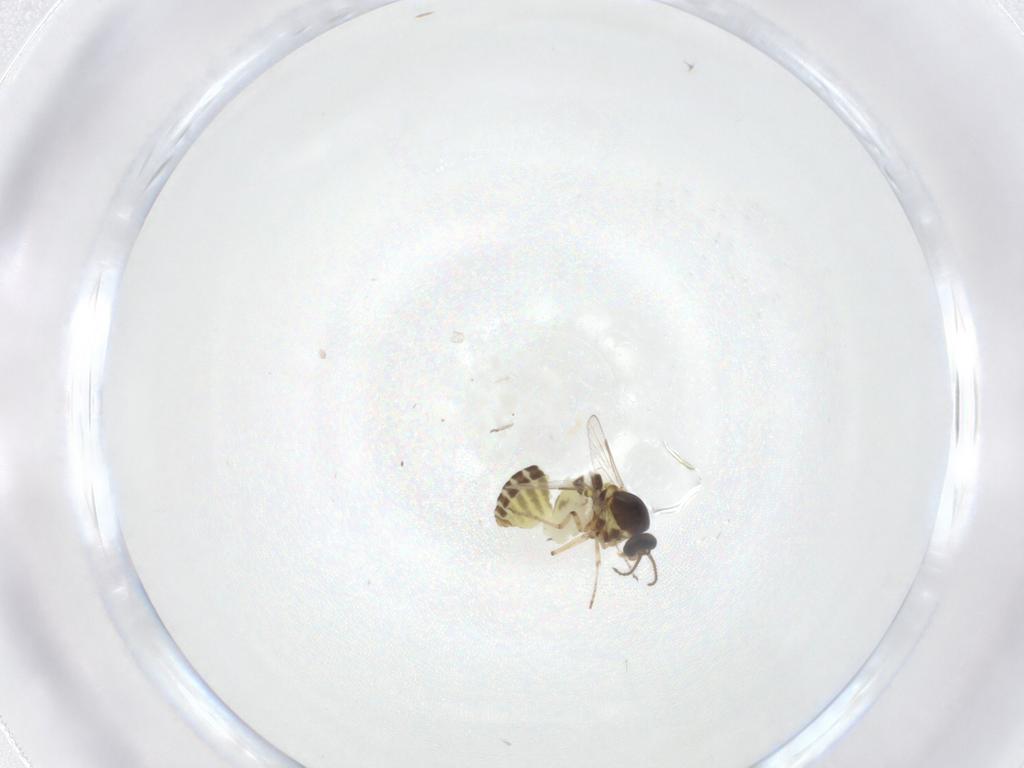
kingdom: Animalia
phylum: Arthropoda
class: Insecta
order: Diptera
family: Ceratopogonidae
